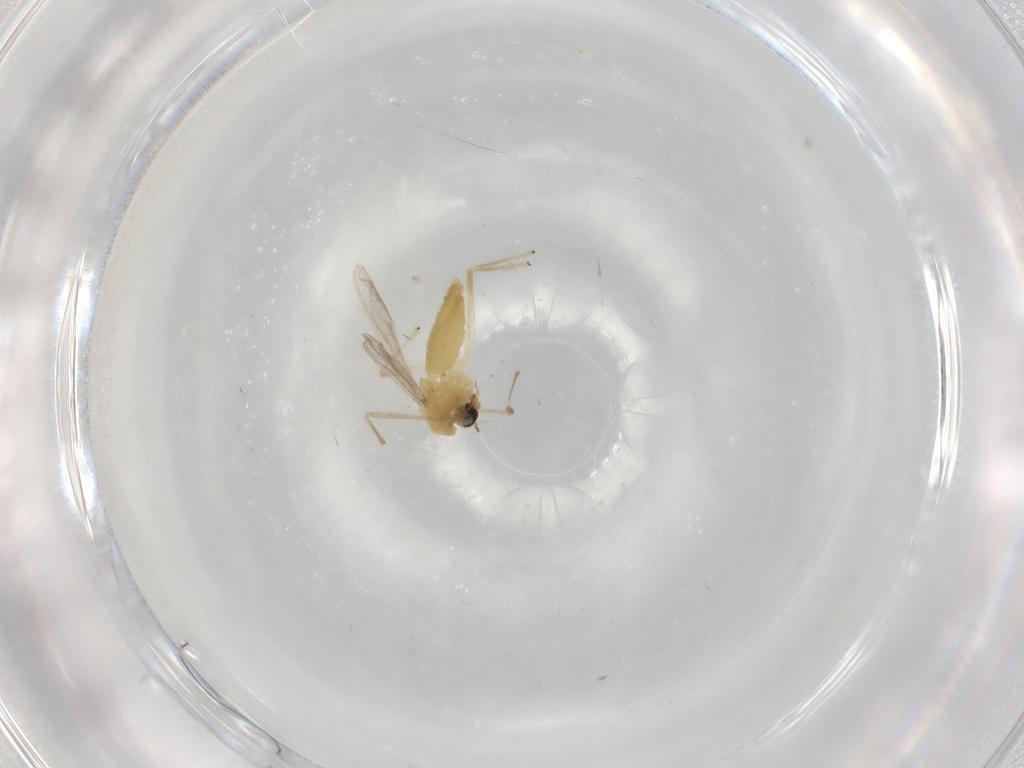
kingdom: Animalia
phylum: Arthropoda
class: Insecta
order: Diptera
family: Chironomidae
